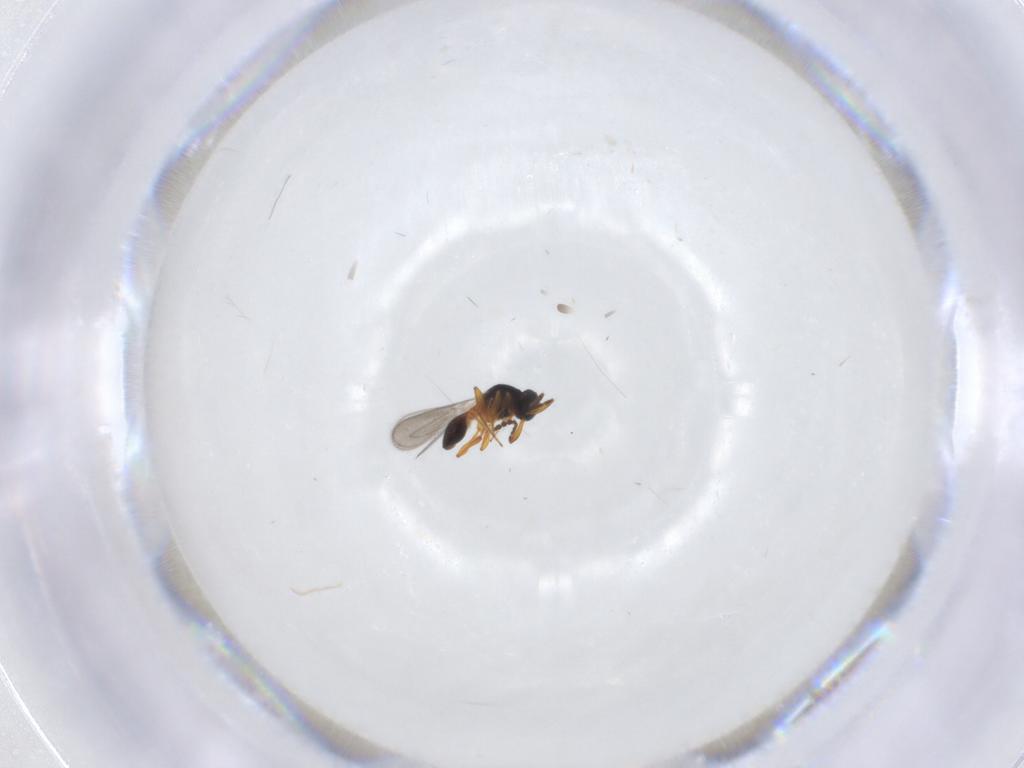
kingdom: Animalia
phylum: Arthropoda
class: Insecta
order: Hymenoptera
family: Platygastridae
